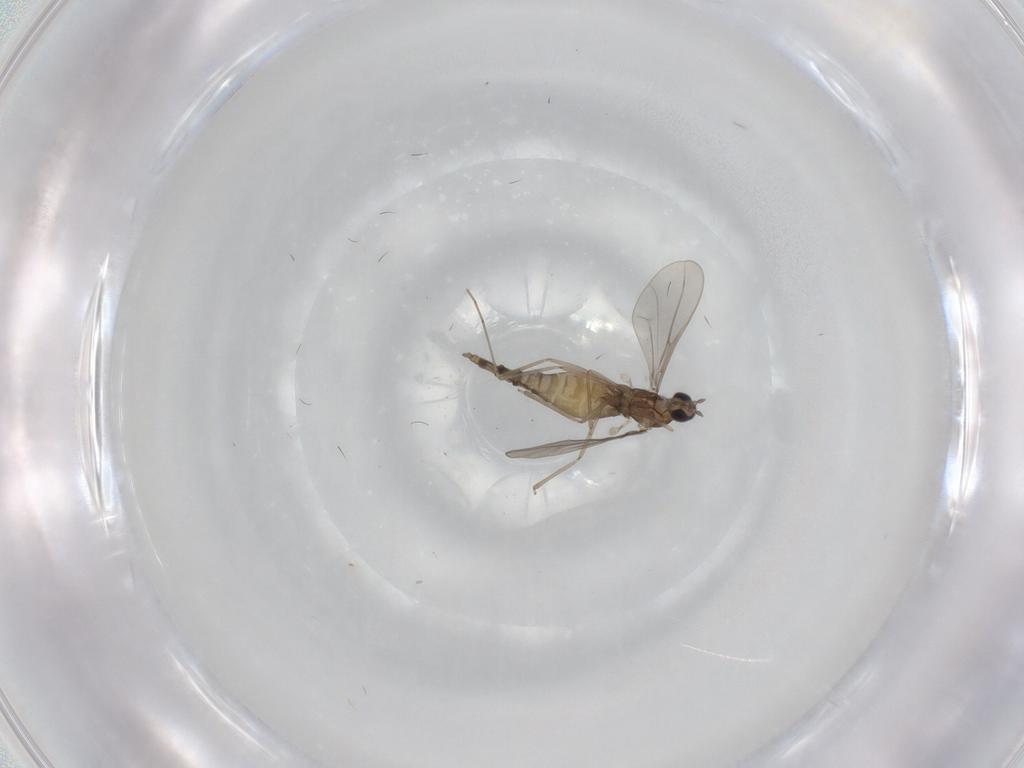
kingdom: Animalia
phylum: Arthropoda
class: Insecta
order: Diptera
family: Cecidomyiidae
